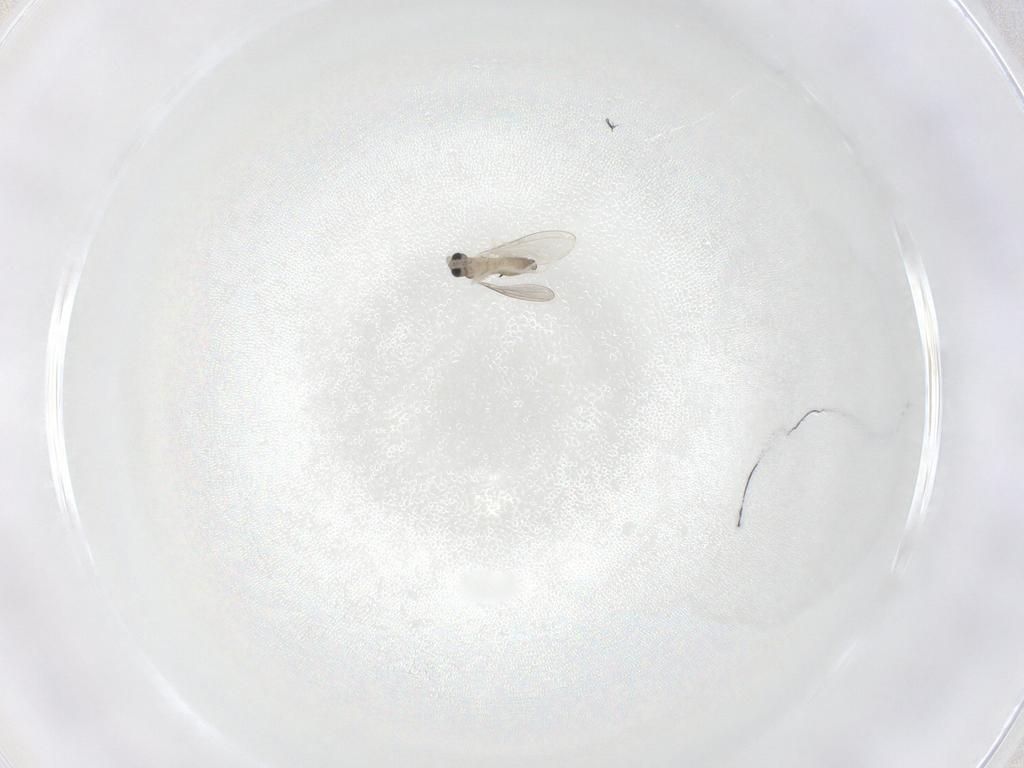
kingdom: Animalia
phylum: Arthropoda
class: Insecta
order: Diptera
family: Cecidomyiidae
